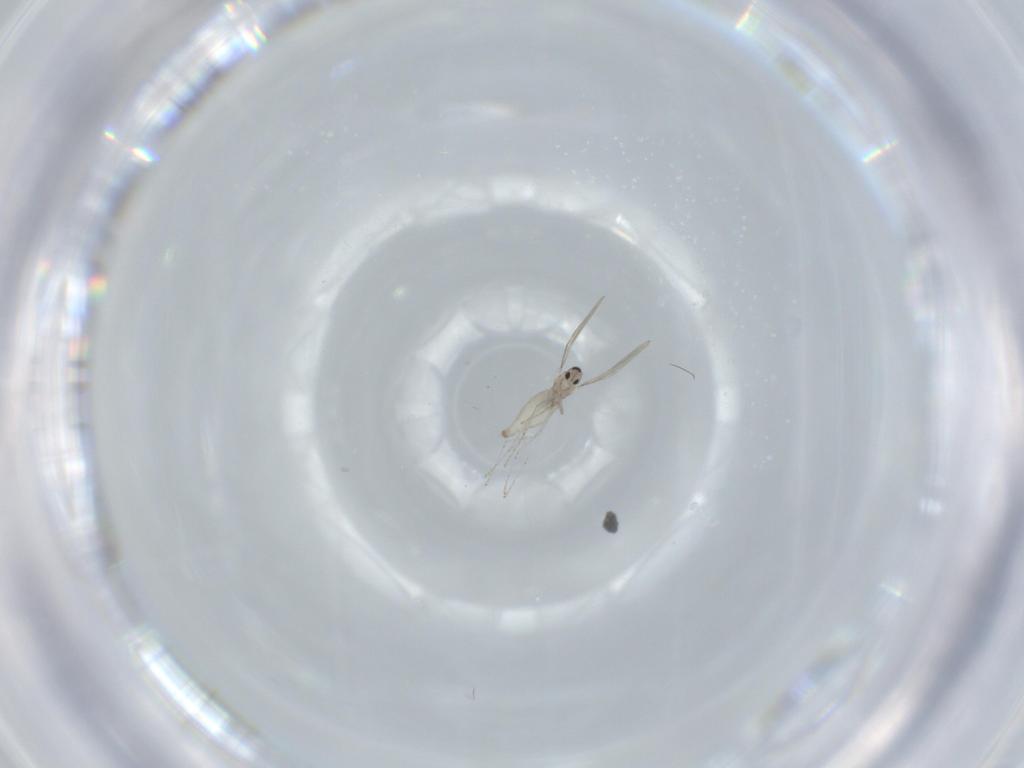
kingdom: Animalia
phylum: Arthropoda
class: Insecta
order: Diptera
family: Cecidomyiidae
